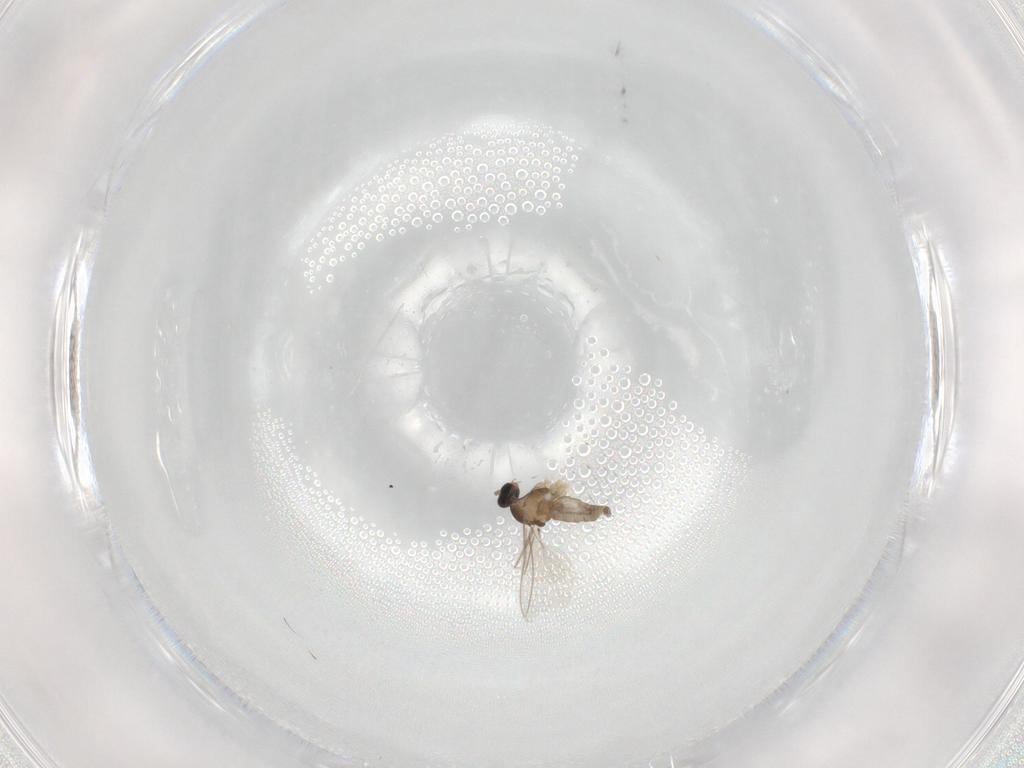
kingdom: Animalia
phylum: Arthropoda
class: Insecta
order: Diptera
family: Cecidomyiidae
